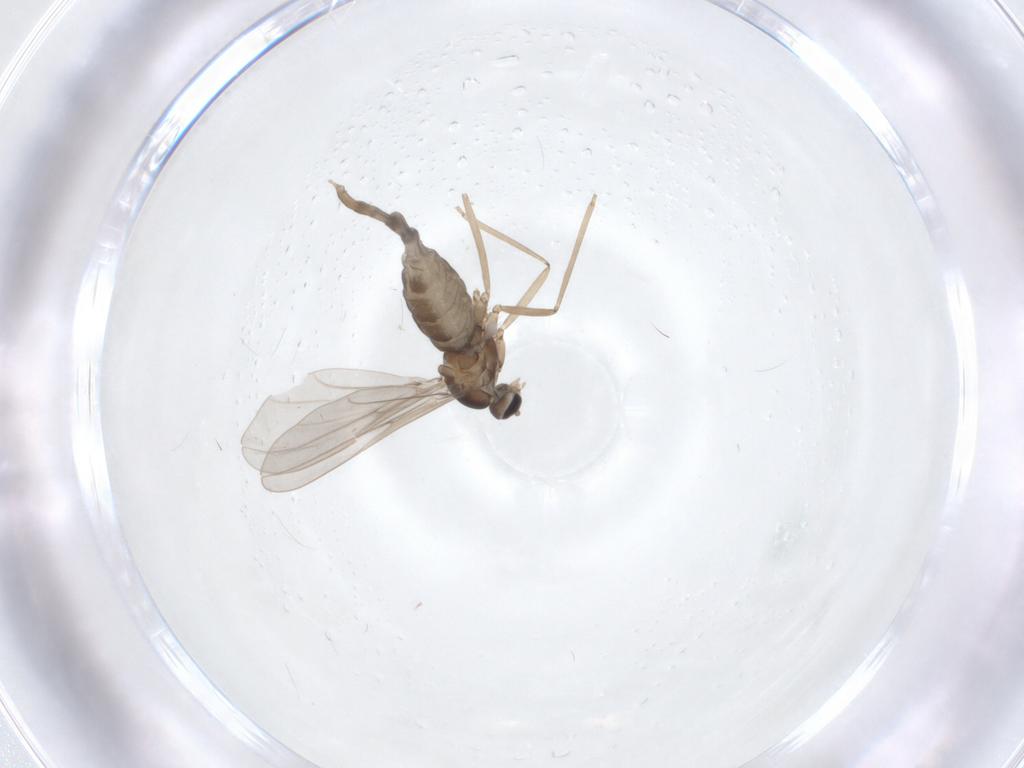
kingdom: Animalia
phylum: Arthropoda
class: Insecta
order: Diptera
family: Cecidomyiidae
